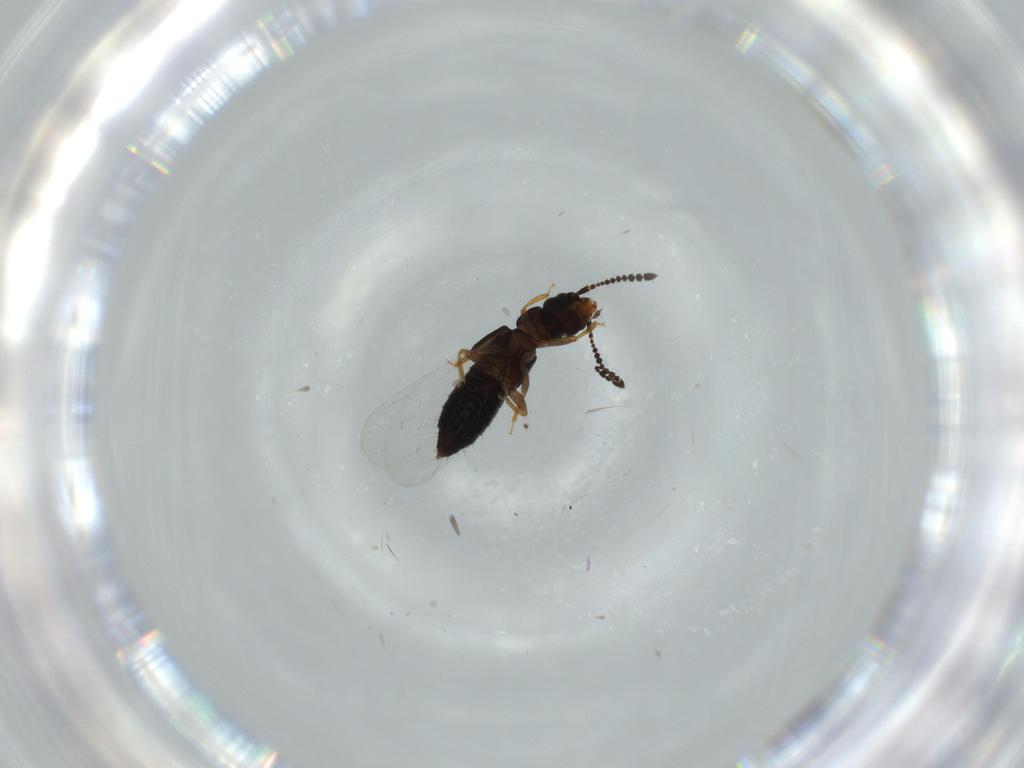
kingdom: Animalia
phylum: Arthropoda
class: Insecta
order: Coleoptera
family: Staphylinidae
